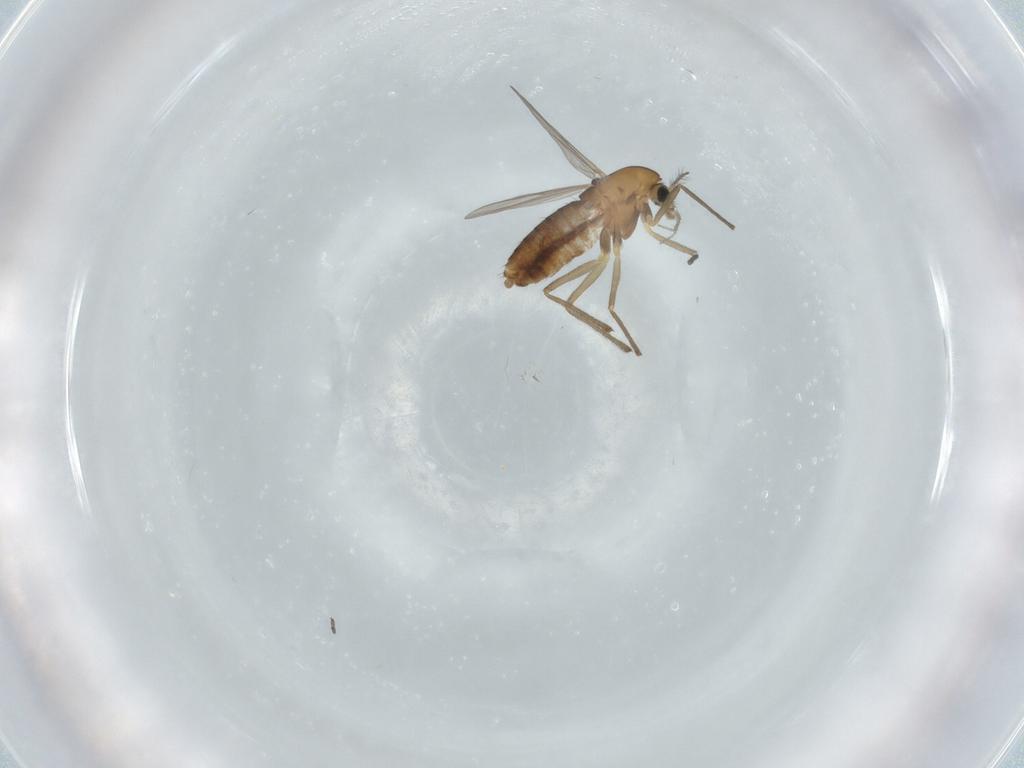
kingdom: Animalia
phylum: Arthropoda
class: Insecta
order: Diptera
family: Chironomidae
